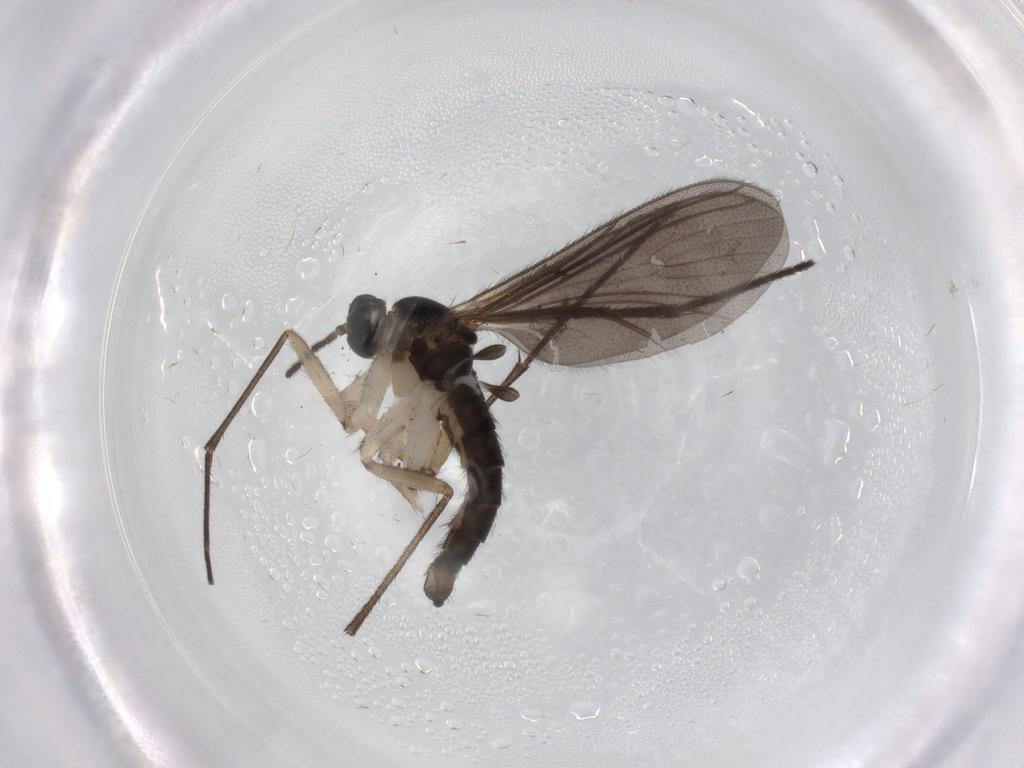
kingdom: Animalia
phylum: Arthropoda
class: Insecta
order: Diptera
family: Sciaridae
